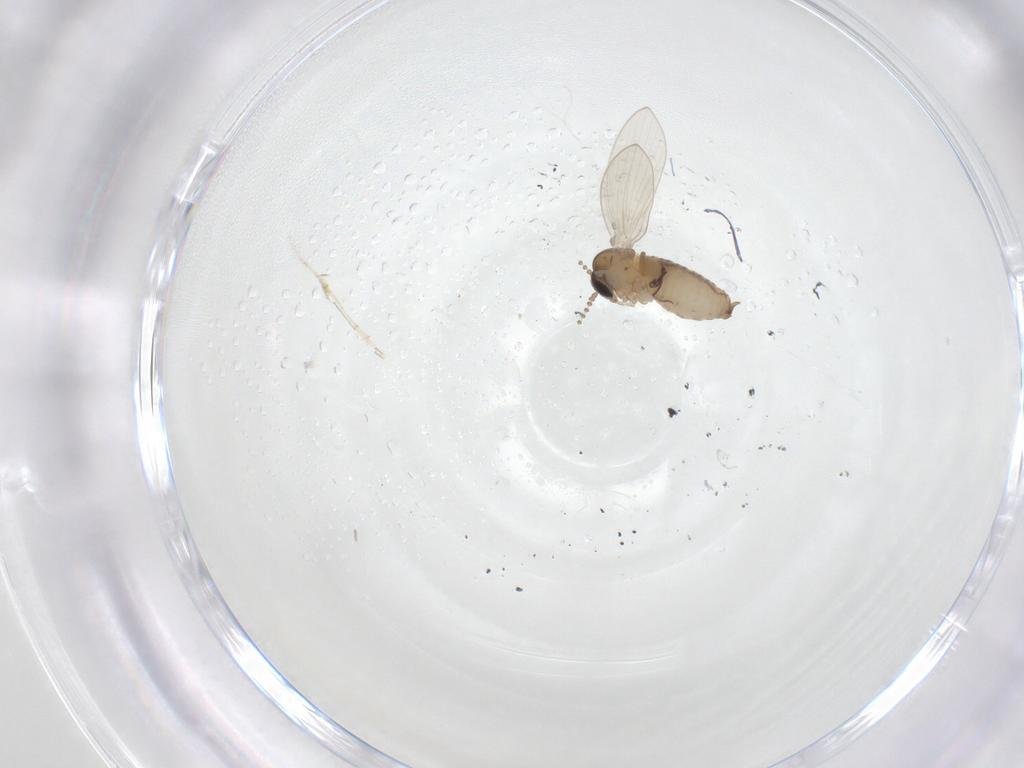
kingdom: Animalia
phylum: Arthropoda
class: Insecta
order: Diptera
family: Psychodidae
